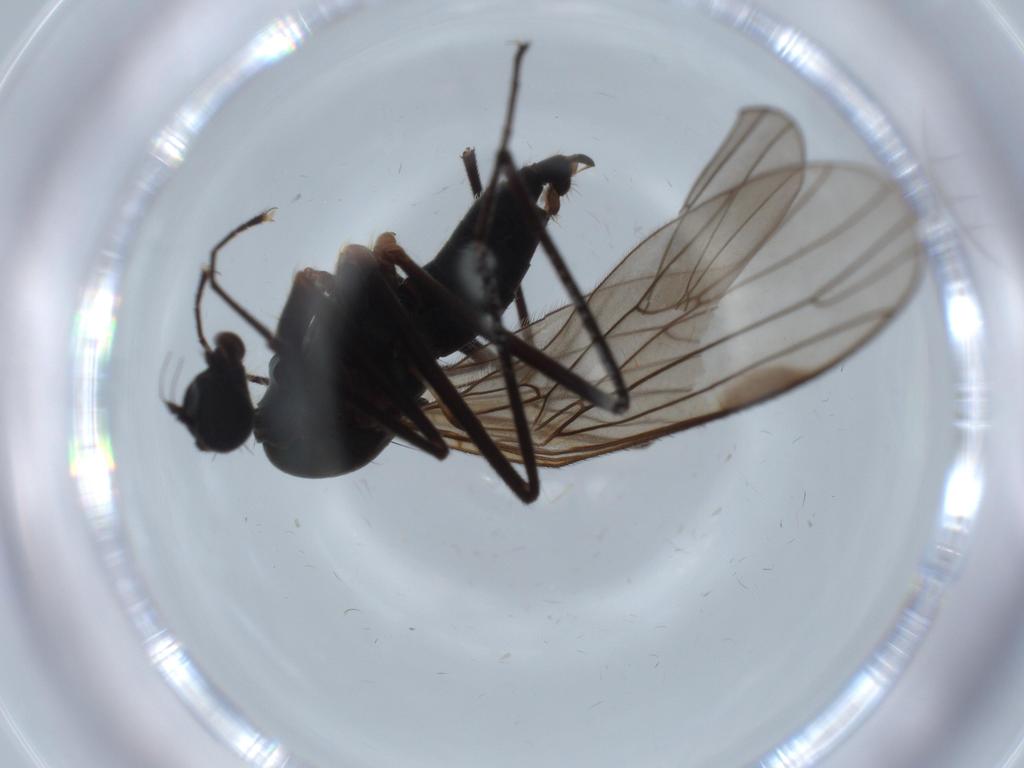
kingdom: Animalia
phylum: Arthropoda
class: Insecta
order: Diptera
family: Empididae
